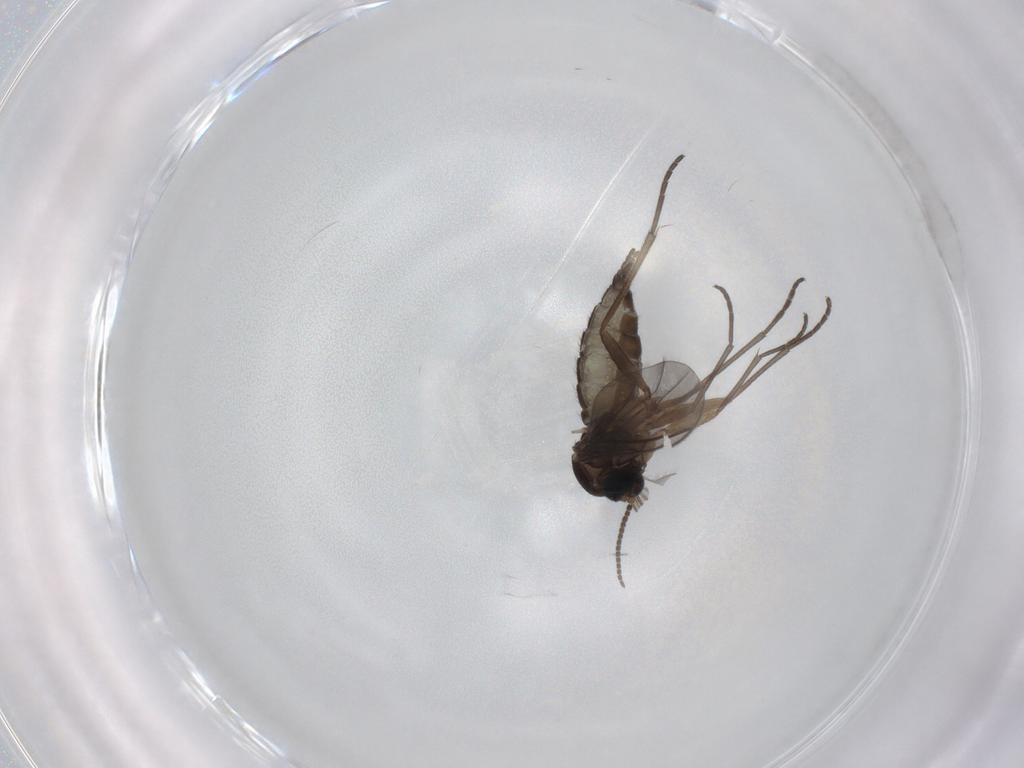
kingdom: Animalia
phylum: Arthropoda
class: Insecta
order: Diptera
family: Sciaridae
